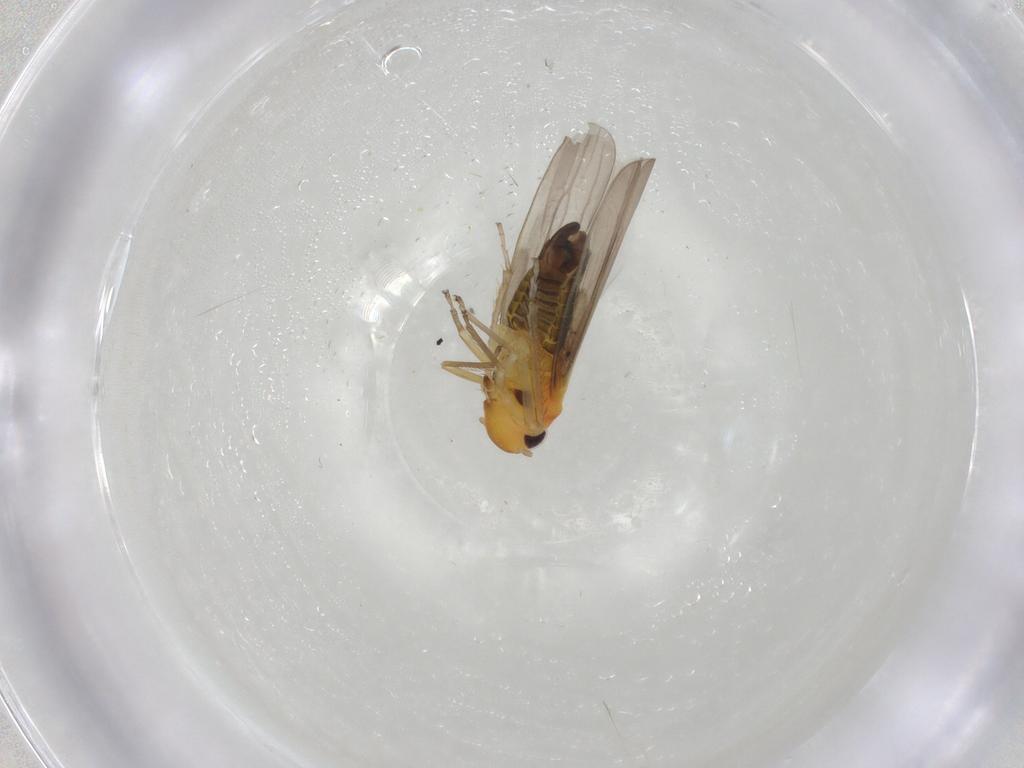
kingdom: Animalia
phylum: Arthropoda
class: Insecta
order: Hemiptera
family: Cicadellidae
